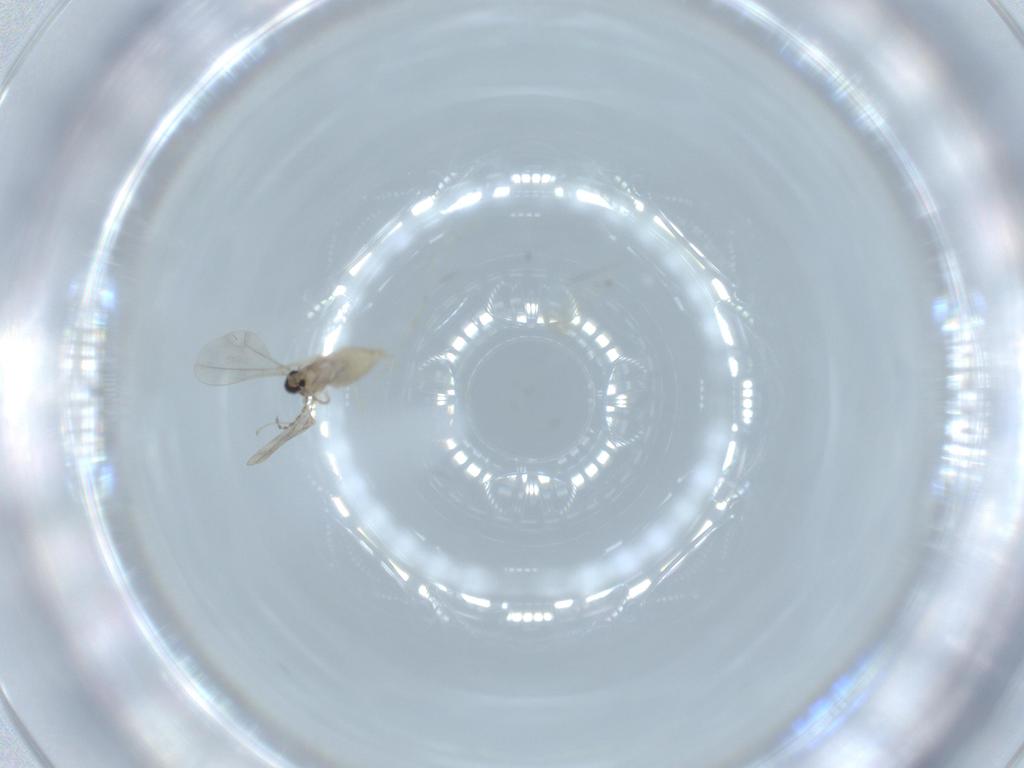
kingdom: Animalia
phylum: Arthropoda
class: Insecta
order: Diptera
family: Cecidomyiidae
